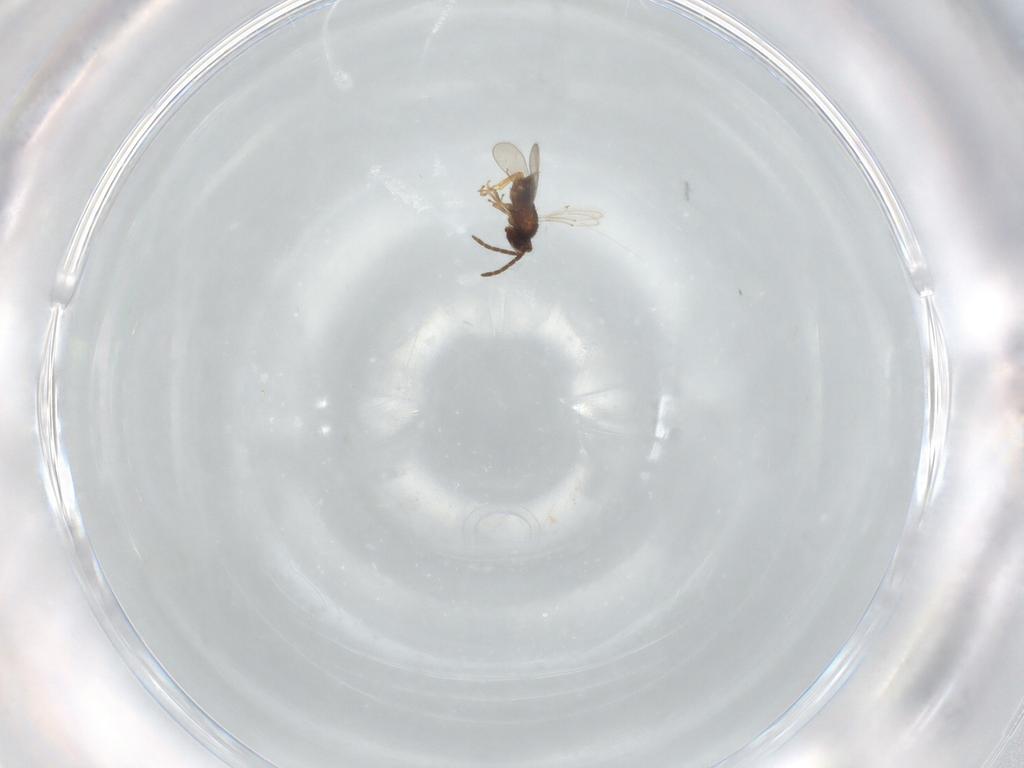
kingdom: Animalia
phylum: Arthropoda
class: Insecta
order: Hymenoptera
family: Aphelinidae
